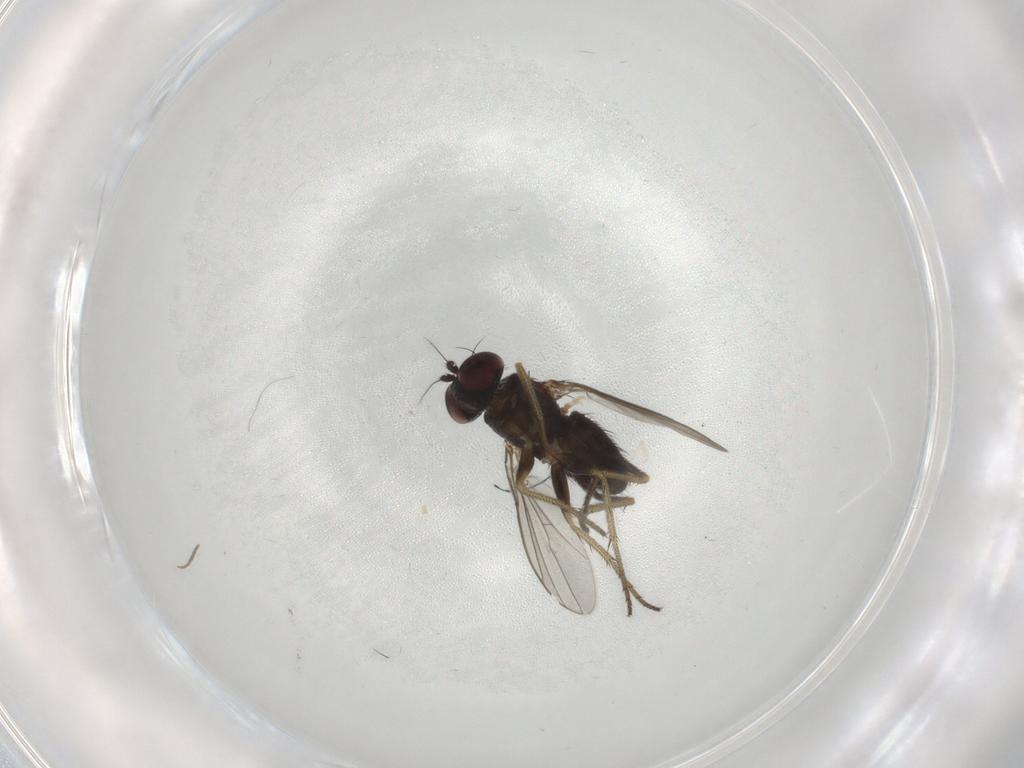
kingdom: Animalia
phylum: Arthropoda
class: Insecta
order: Diptera
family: Dolichopodidae
